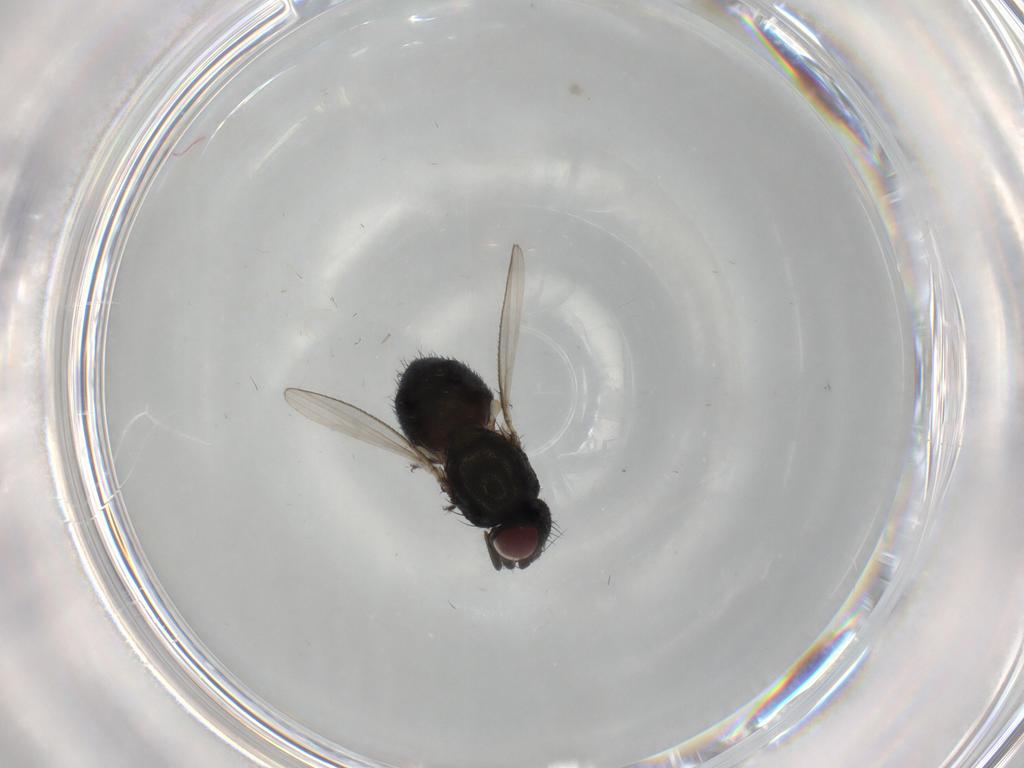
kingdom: Animalia
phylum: Arthropoda
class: Insecta
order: Diptera
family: Milichiidae
